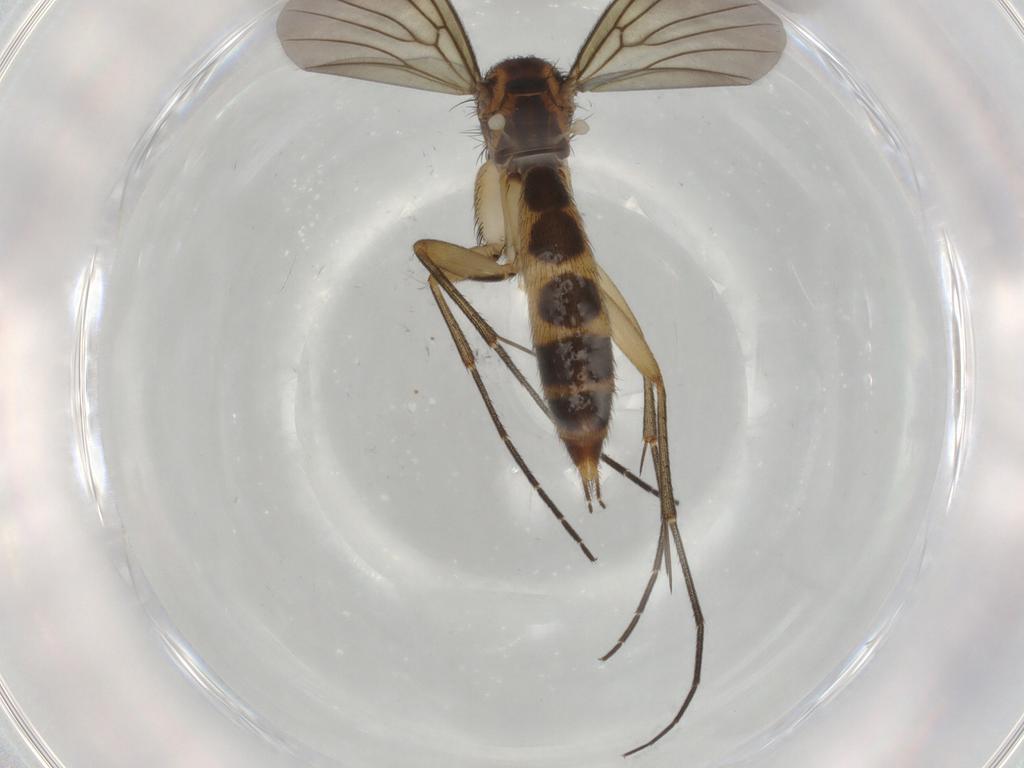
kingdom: Animalia
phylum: Arthropoda
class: Insecta
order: Diptera
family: Mycetophilidae
